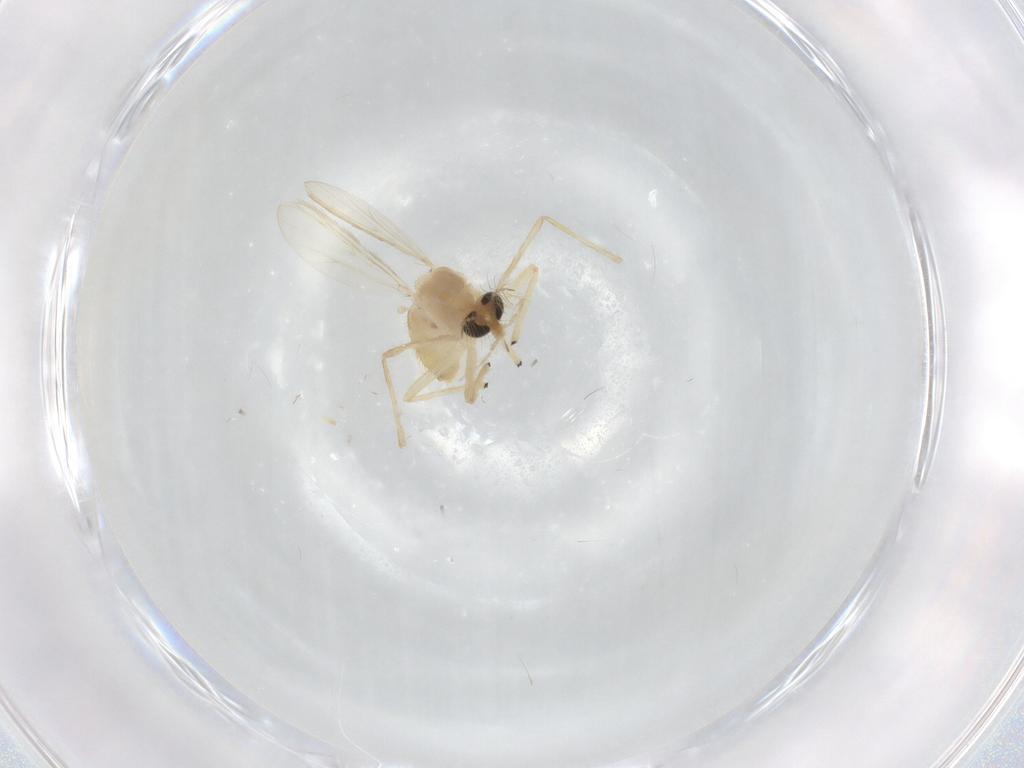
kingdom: Animalia
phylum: Arthropoda
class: Insecta
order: Diptera
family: Chironomidae
